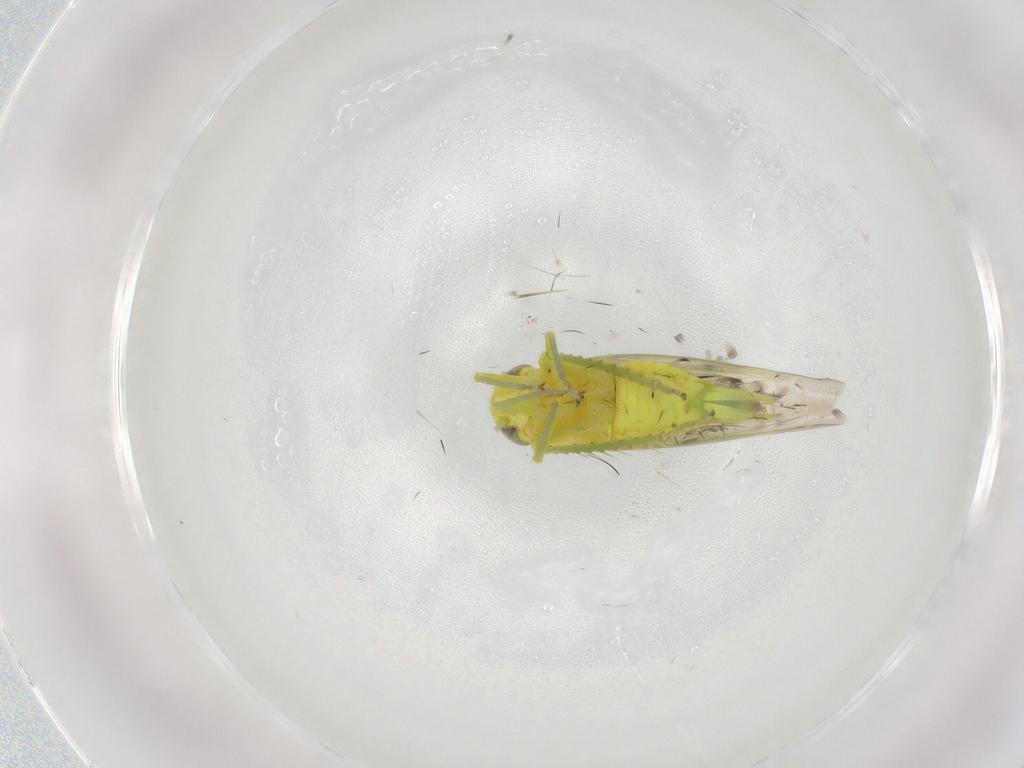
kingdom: Animalia
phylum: Arthropoda
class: Insecta
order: Hemiptera
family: Cicadellidae
